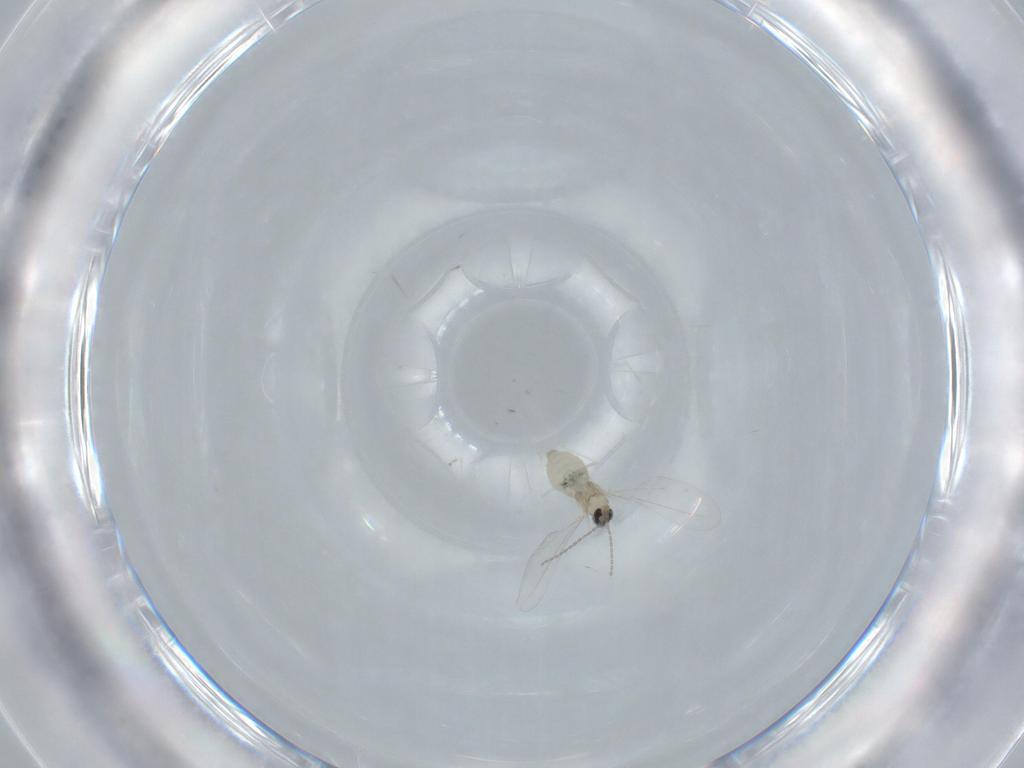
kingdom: Animalia
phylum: Arthropoda
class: Insecta
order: Diptera
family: Cecidomyiidae
